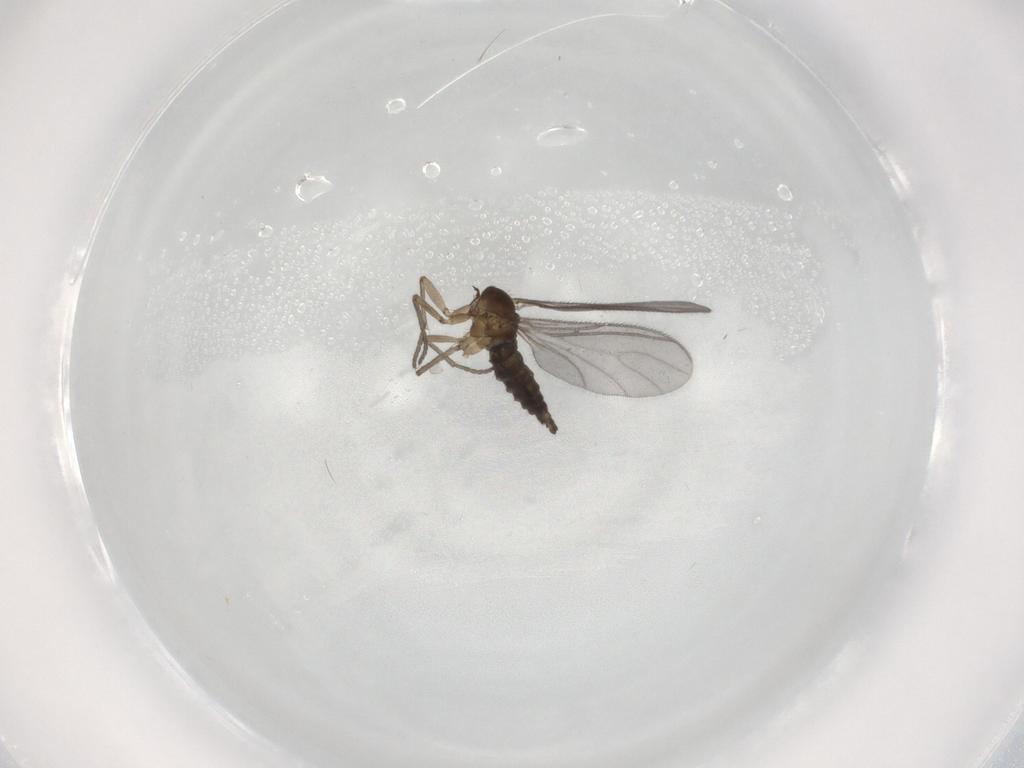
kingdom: Animalia
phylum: Arthropoda
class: Insecta
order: Diptera
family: Sciaridae
